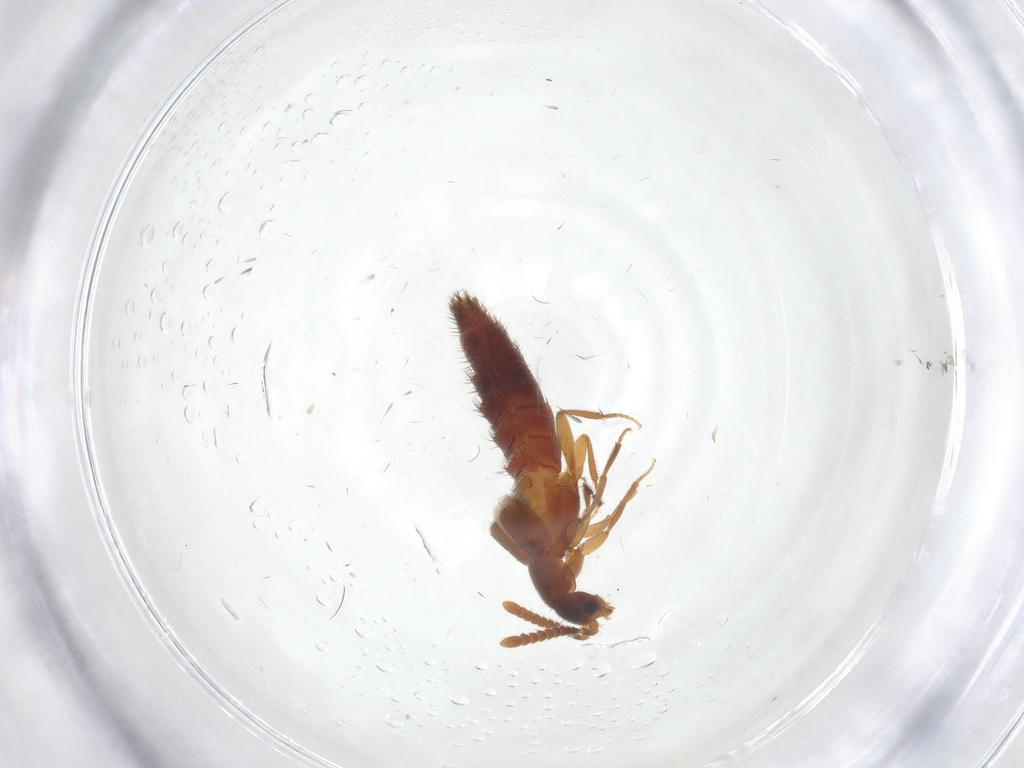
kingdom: Animalia
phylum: Arthropoda
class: Insecta
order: Coleoptera
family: Staphylinidae
